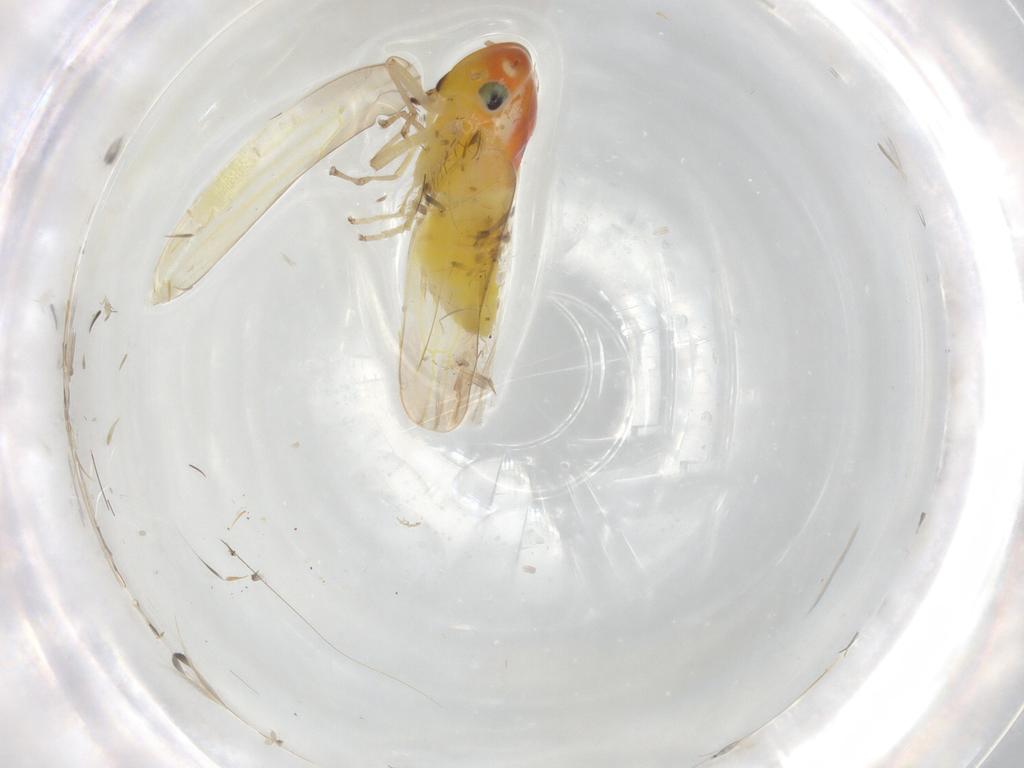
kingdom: Animalia
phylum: Arthropoda
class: Insecta
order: Hemiptera
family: Cicadellidae
